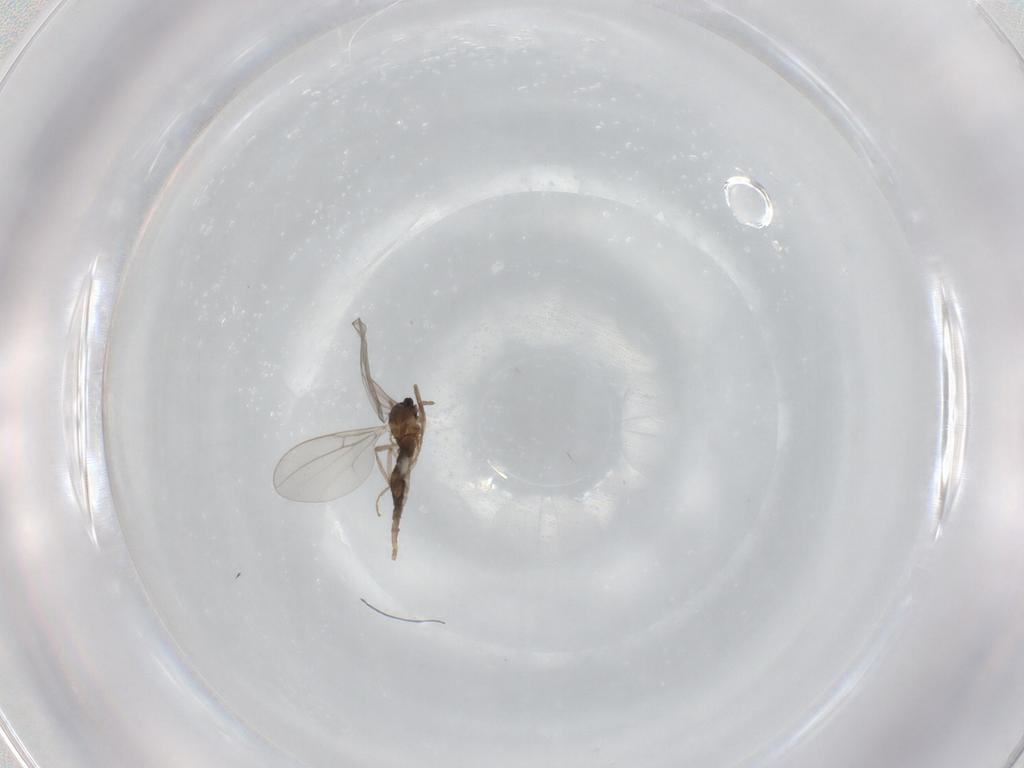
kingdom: Animalia
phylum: Arthropoda
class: Insecta
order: Diptera
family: Cecidomyiidae
